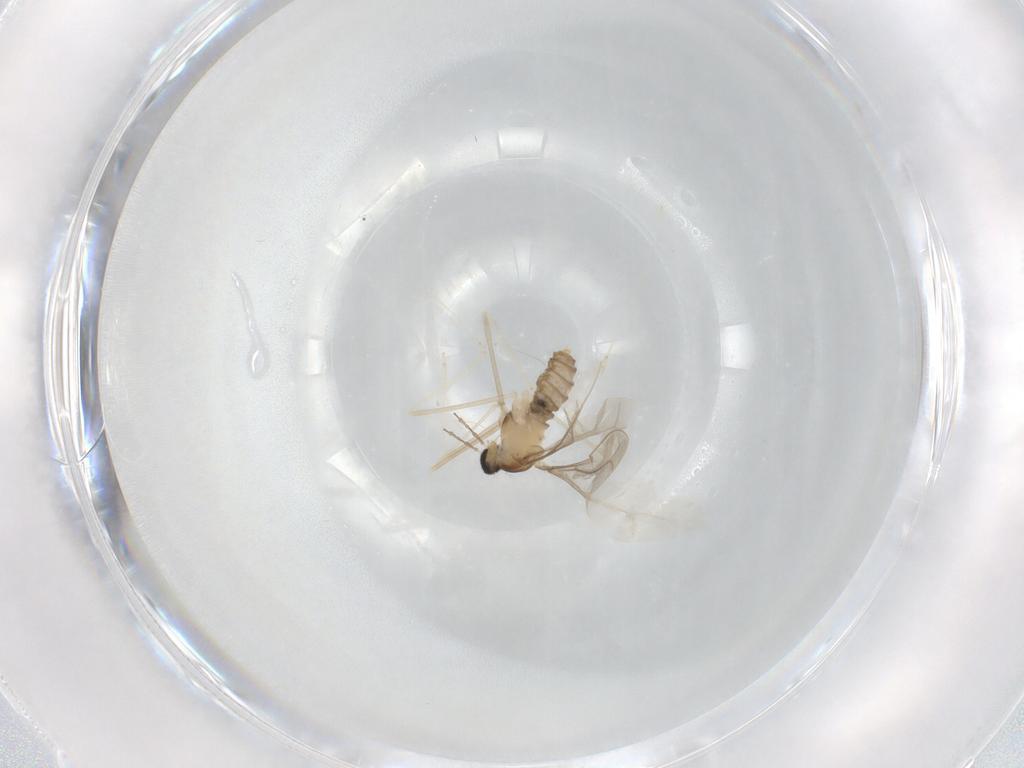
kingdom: Animalia
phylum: Arthropoda
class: Insecta
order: Diptera
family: Cecidomyiidae
